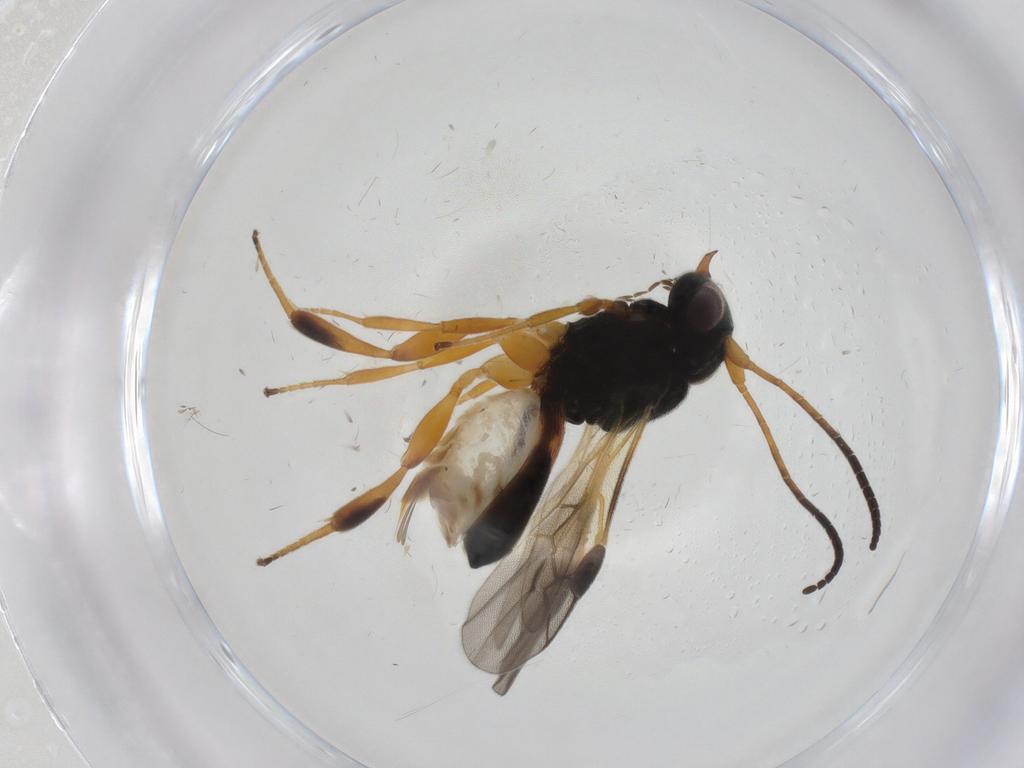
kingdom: Animalia
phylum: Arthropoda
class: Insecta
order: Hymenoptera
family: Braconidae
